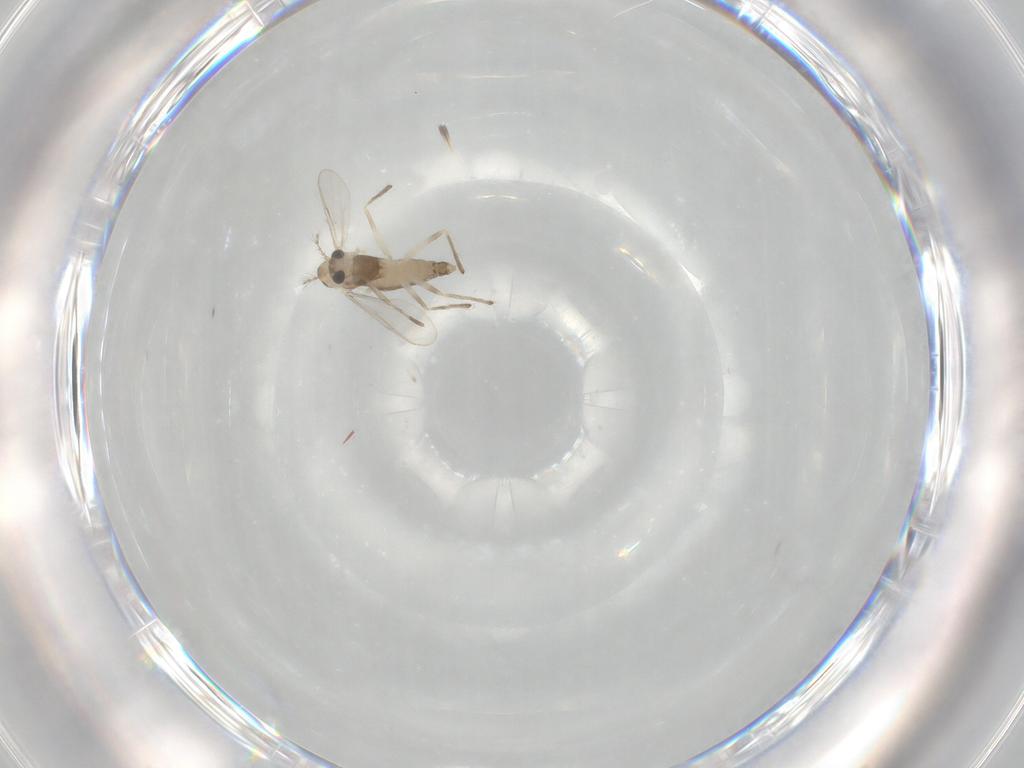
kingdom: Animalia
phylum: Arthropoda
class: Insecta
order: Diptera
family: Chironomidae
